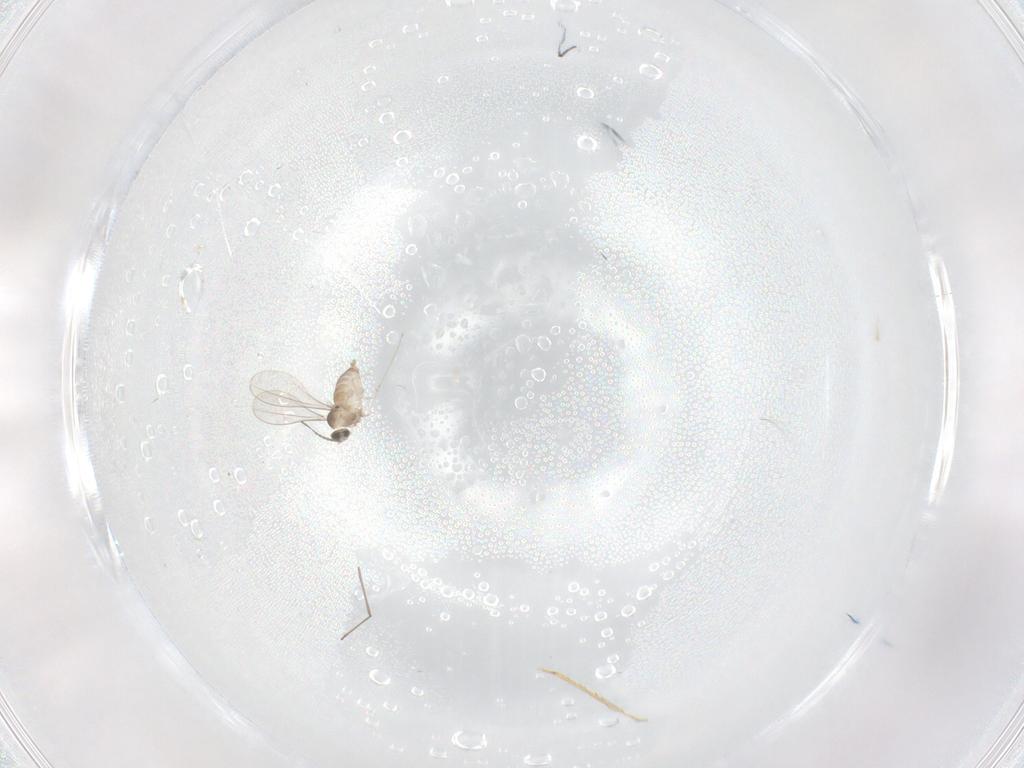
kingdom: Animalia
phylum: Arthropoda
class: Insecta
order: Diptera
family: Cecidomyiidae
